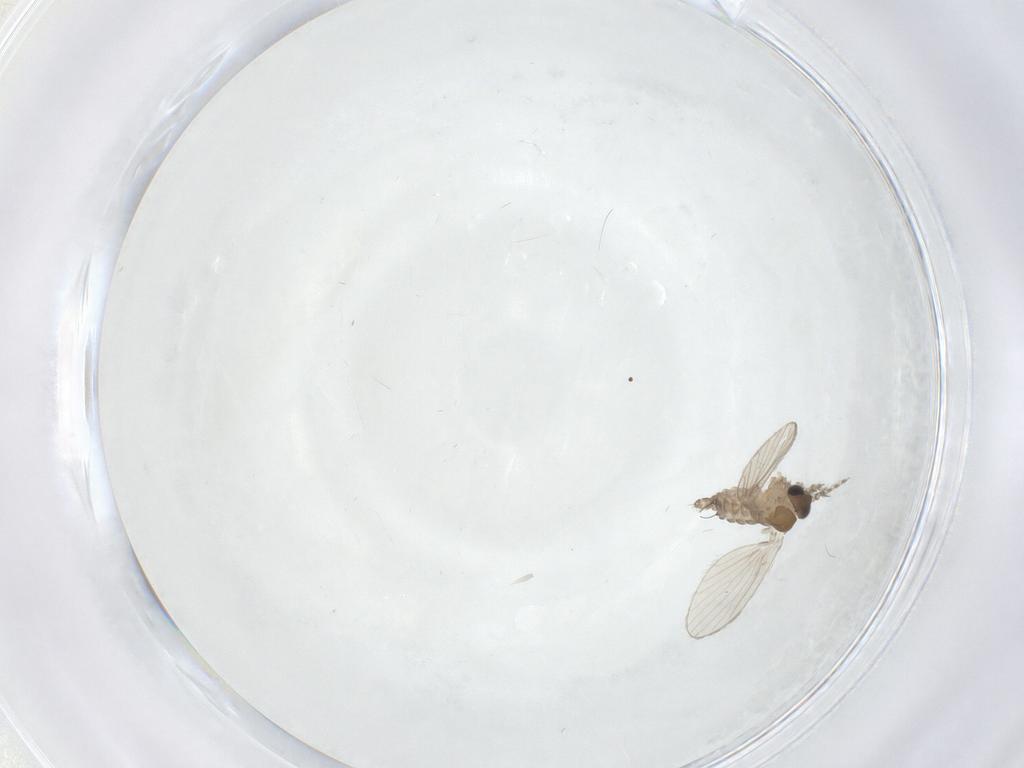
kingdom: Animalia
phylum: Arthropoda
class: Insecta
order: Diptera
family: Psychodidae
